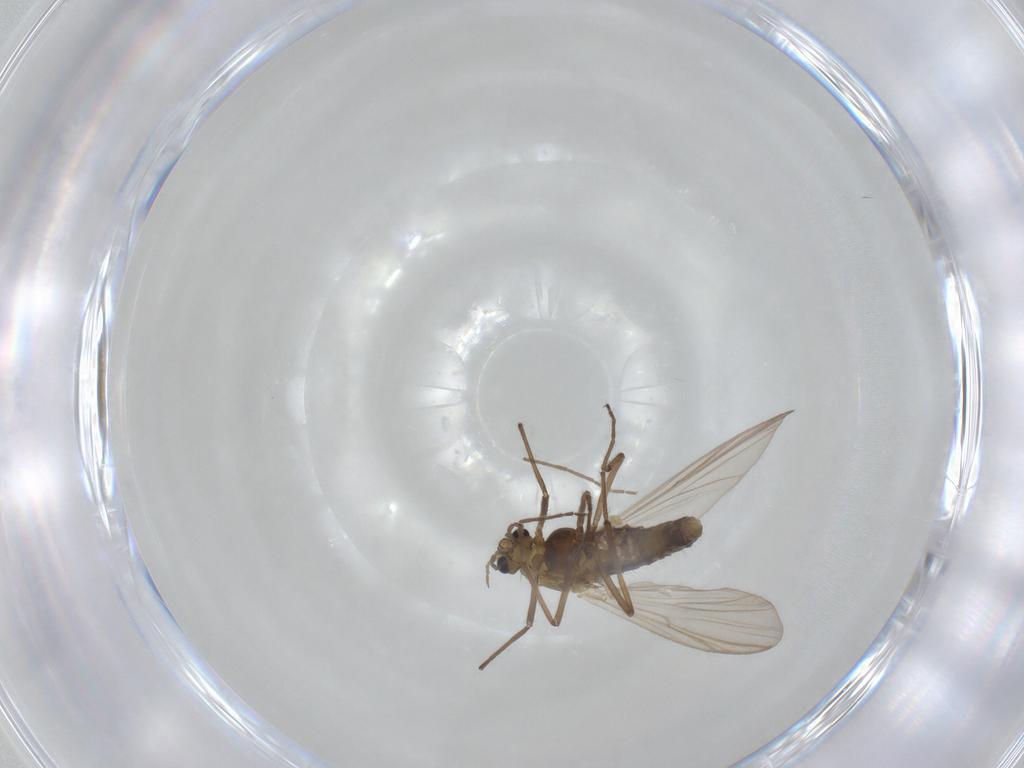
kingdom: Animalia
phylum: Arthropoda
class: Insecta
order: Diptera
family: Chironomidae
